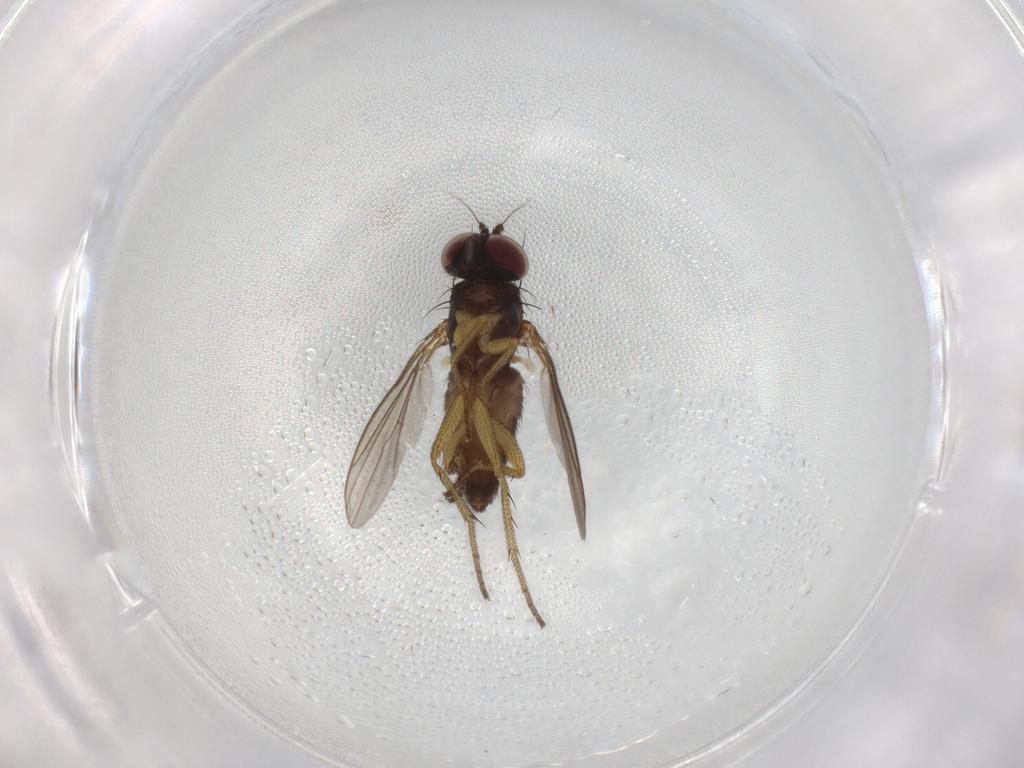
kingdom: Animalia
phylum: Arthropoda
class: Insecta
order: Diptera
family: Dolichopodidae
